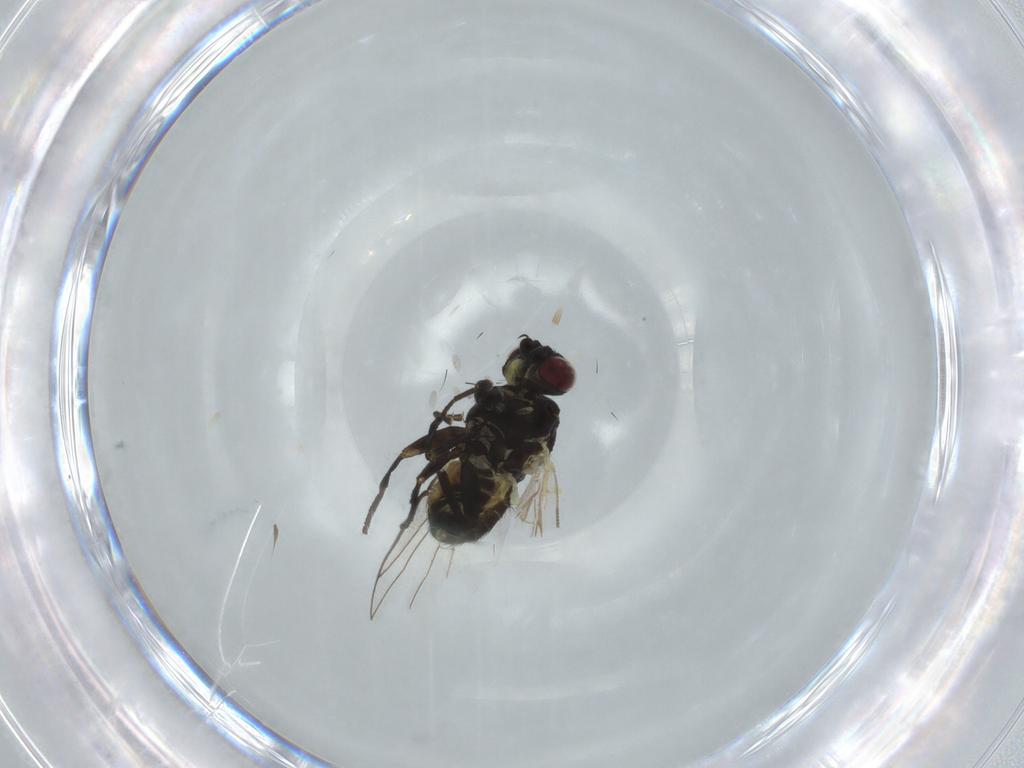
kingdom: Animalia
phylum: Arthropoda
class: Insecta
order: Diptera
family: Agromyzidae
